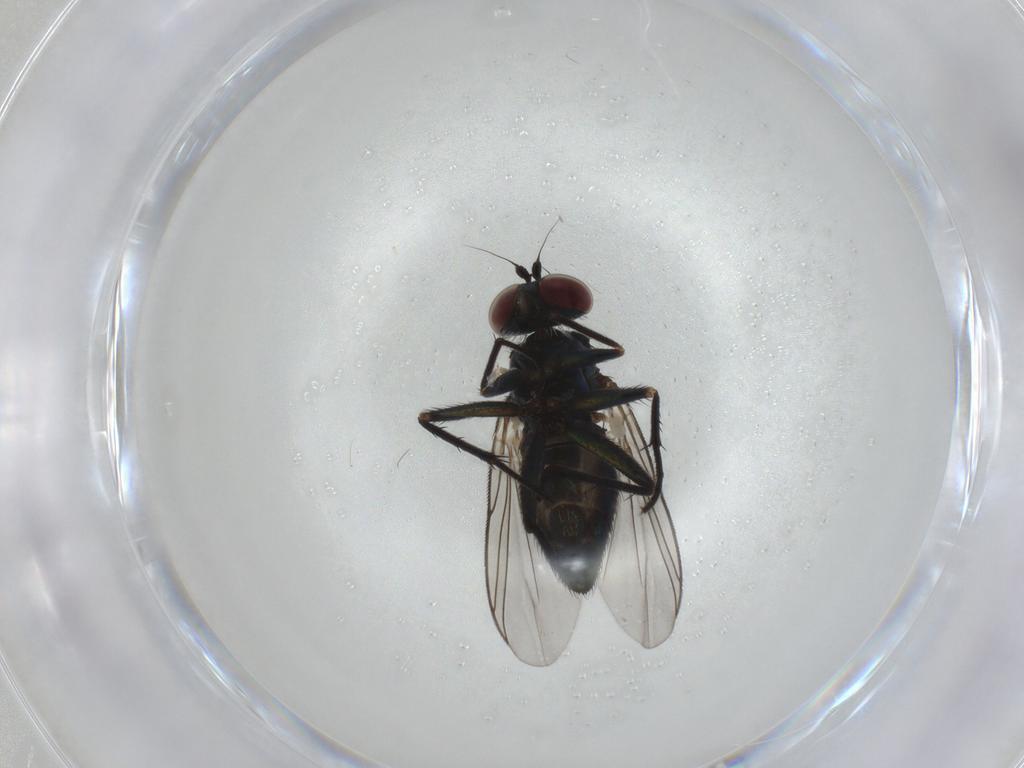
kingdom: Animalia
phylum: Arthropoda
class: Insecta
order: Diptera
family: Dolichopodidae
